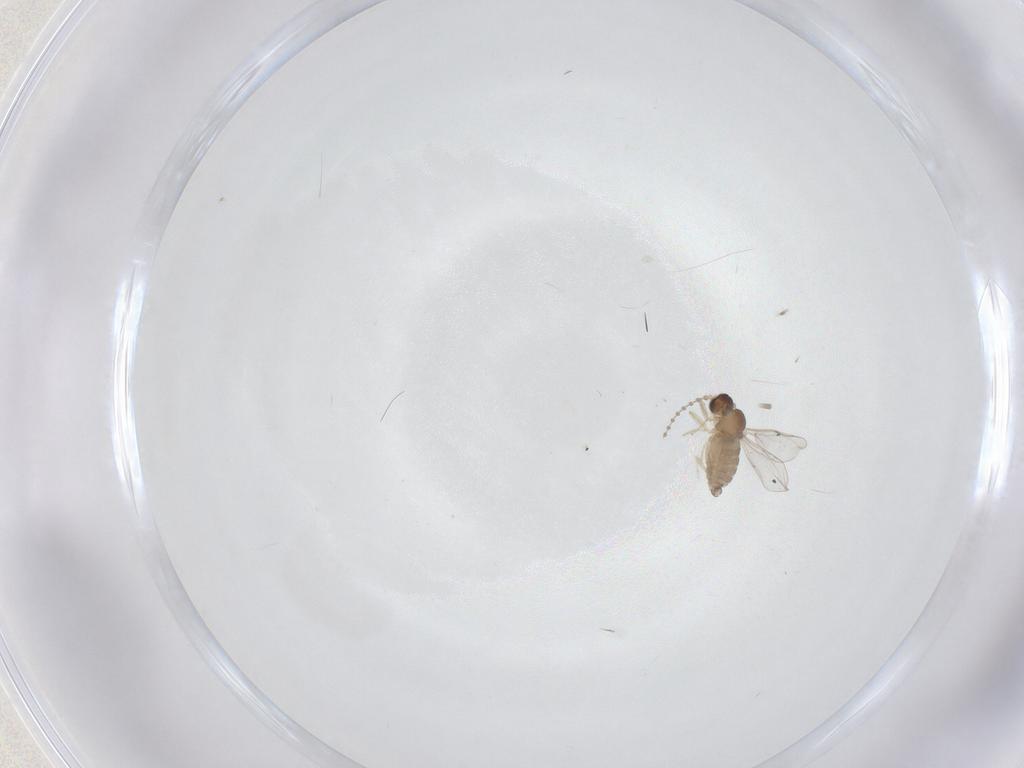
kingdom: Animalia
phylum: Arthropoda
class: Insecta
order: Diptera
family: Cecidomyiidae
